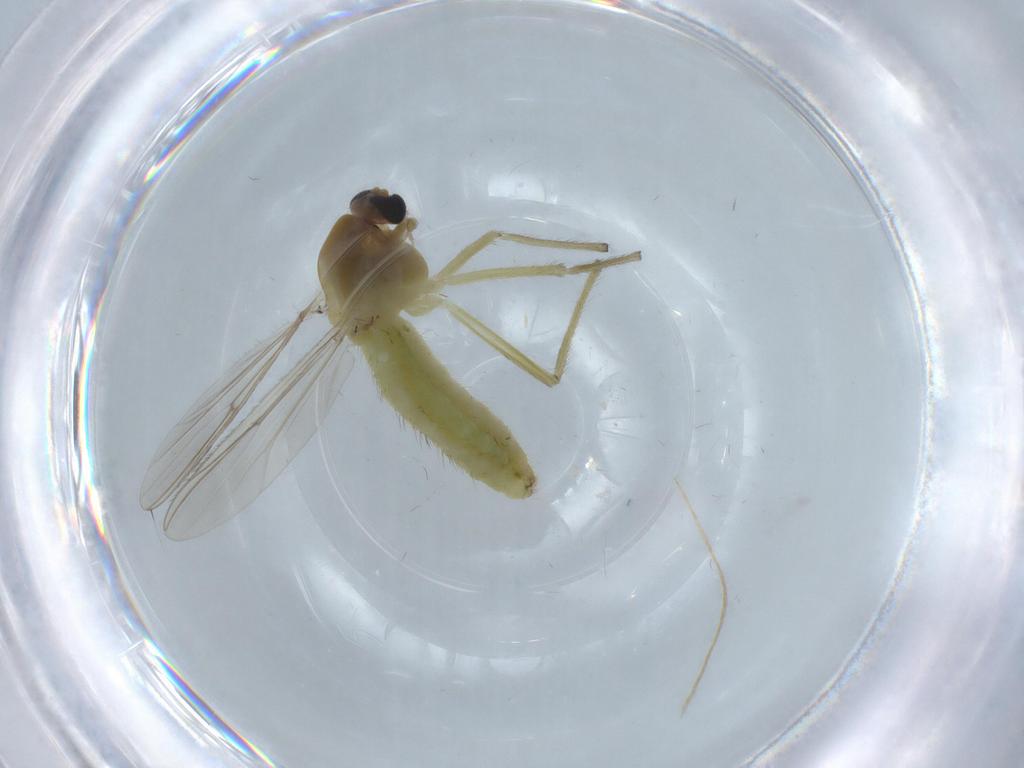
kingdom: Animalia
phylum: Arthropoda
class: Insecta
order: Diptera
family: Chironomidae
